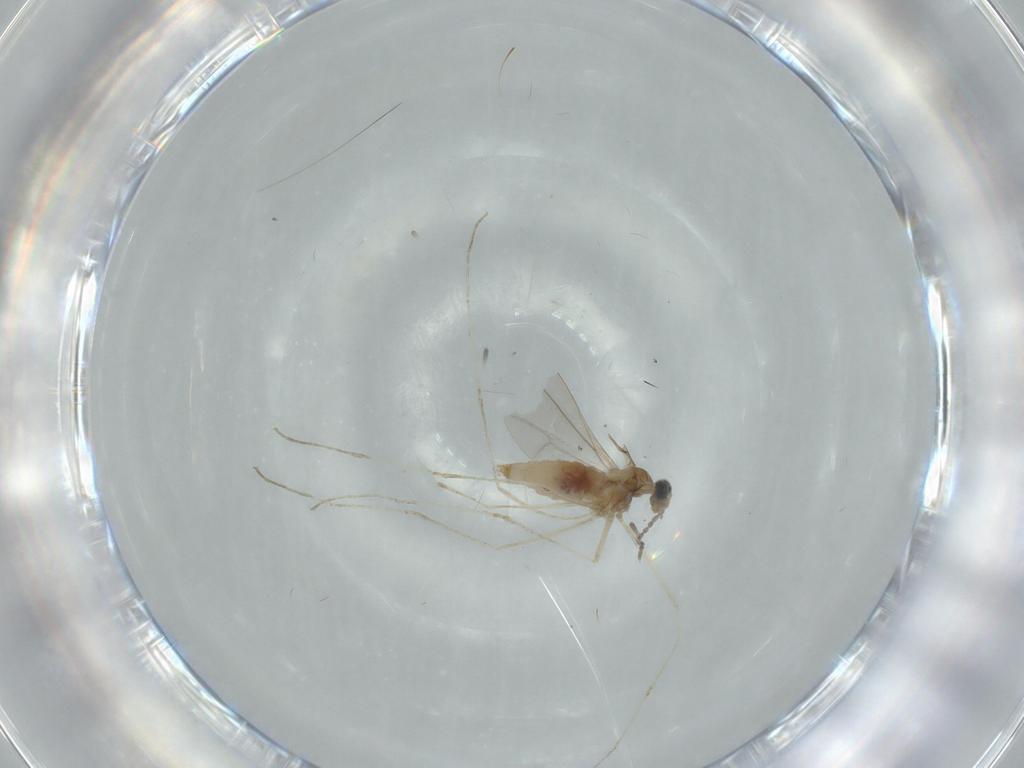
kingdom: Animalia
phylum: Arthropoda
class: Insecta
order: Diptera
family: Cecidomyiidae
